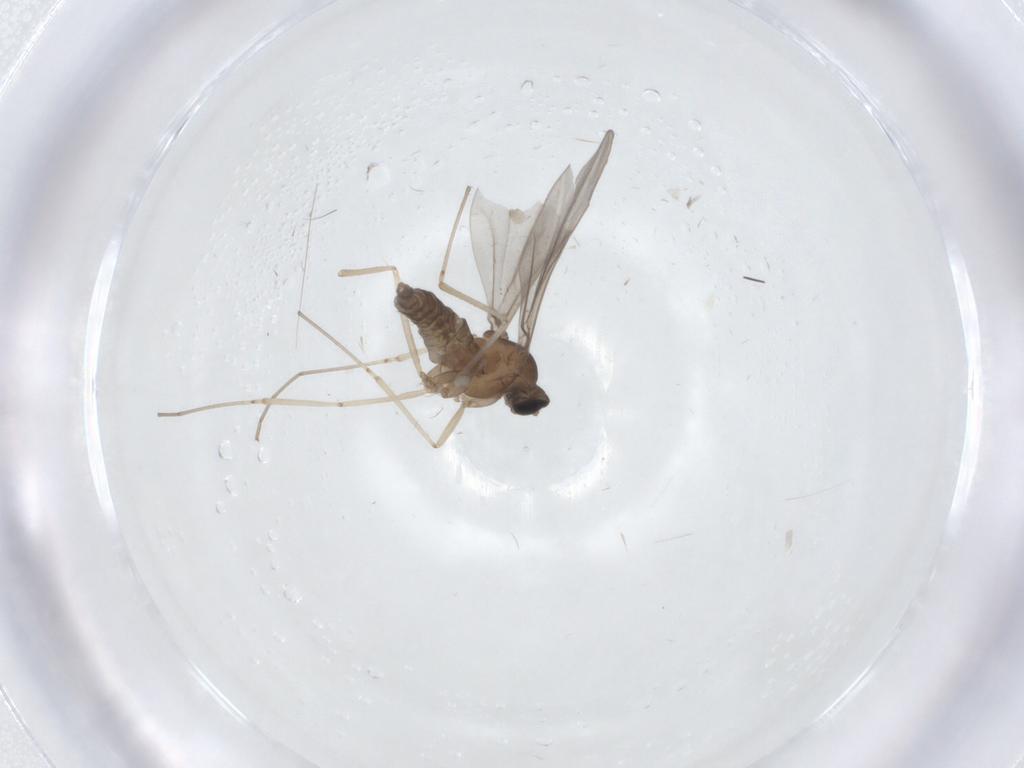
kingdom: Animalia
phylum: Arthropoda
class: Insecta
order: Diptera
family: Cecidomyiidae
